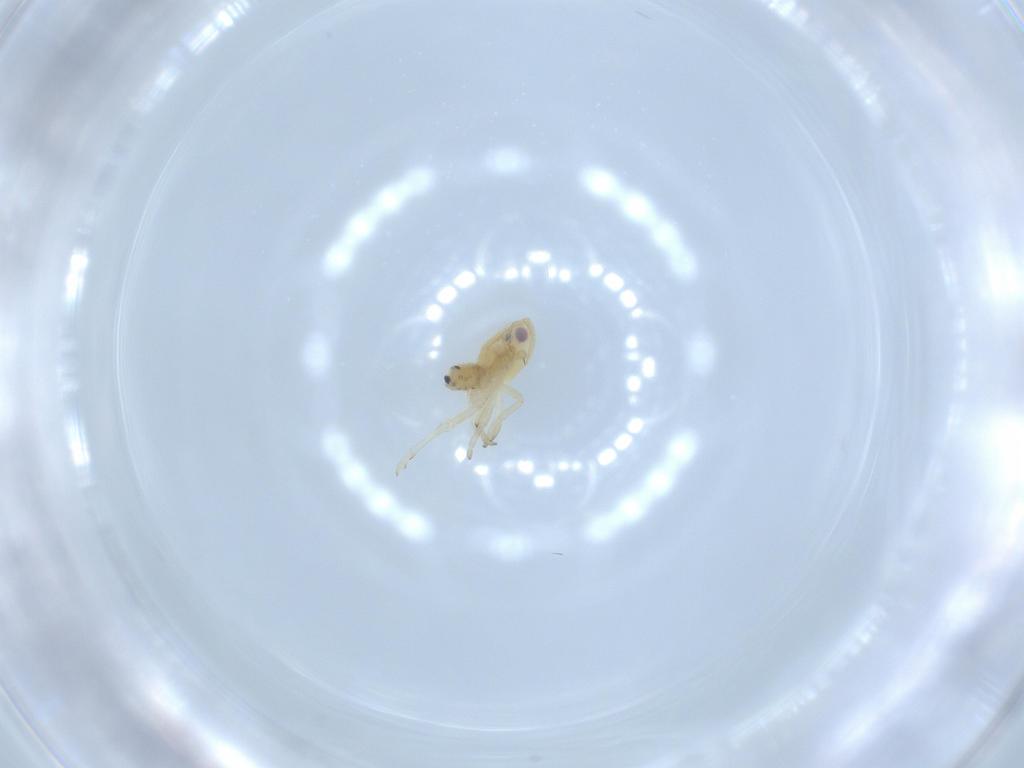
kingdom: Animalia
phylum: Arthropoda
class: Insecta
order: Hemiptera
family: Tropiduchidae
